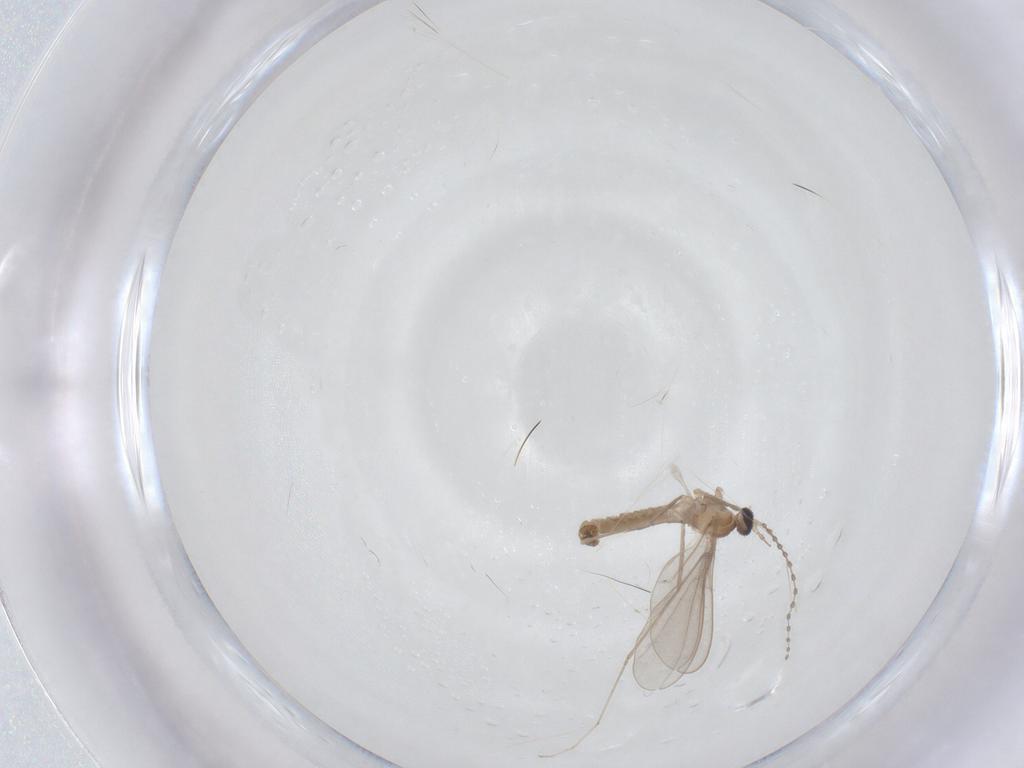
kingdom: Animalia
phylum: Arthropoda
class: Insecta
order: Diptera
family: Cecidomyiidae
